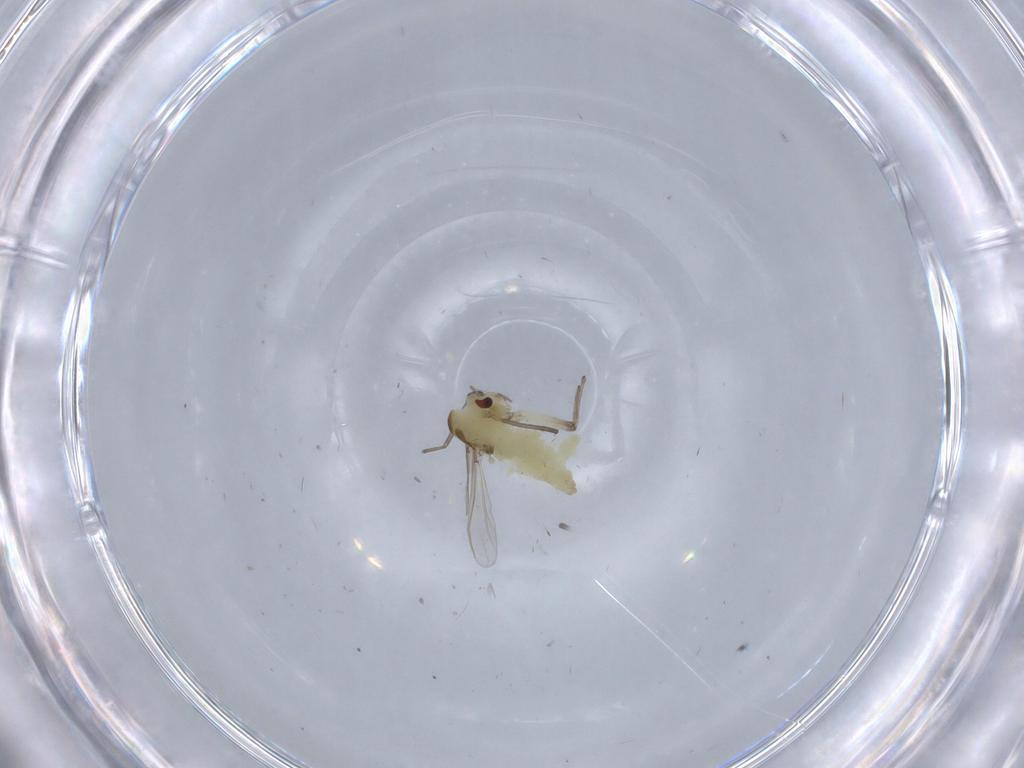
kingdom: Animalia
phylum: Arthropoda
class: Insecta
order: Diptera
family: Chironomidae
